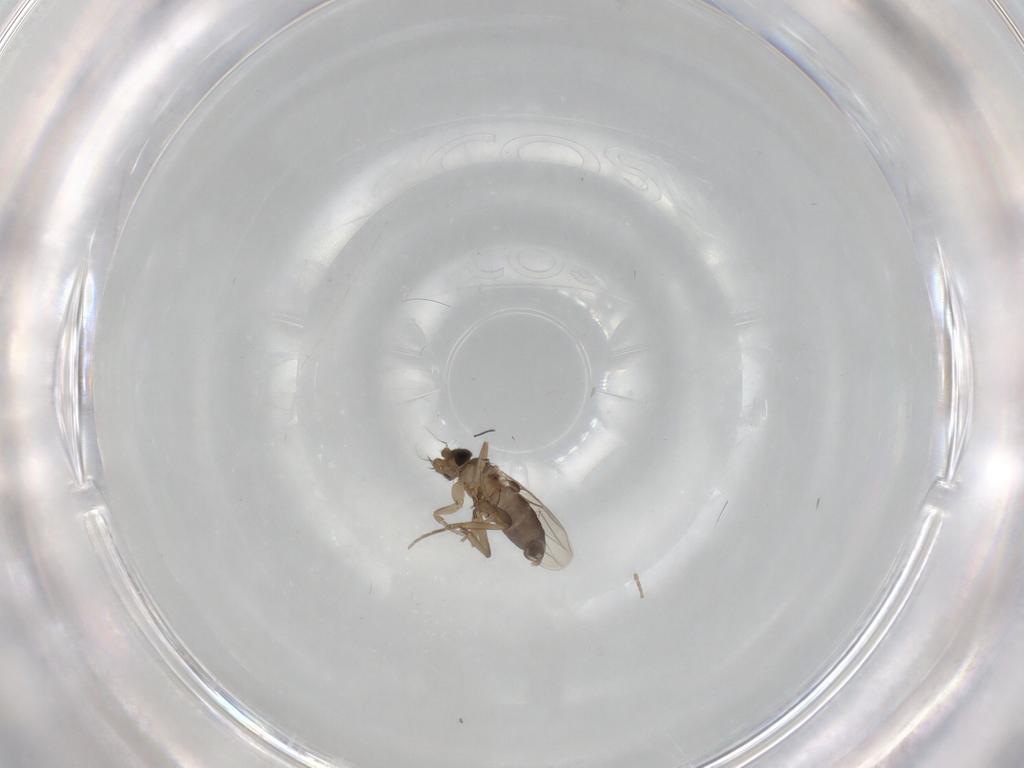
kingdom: Animalia
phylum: Arthropoda
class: Insecta
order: Diptera
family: Phoridae
